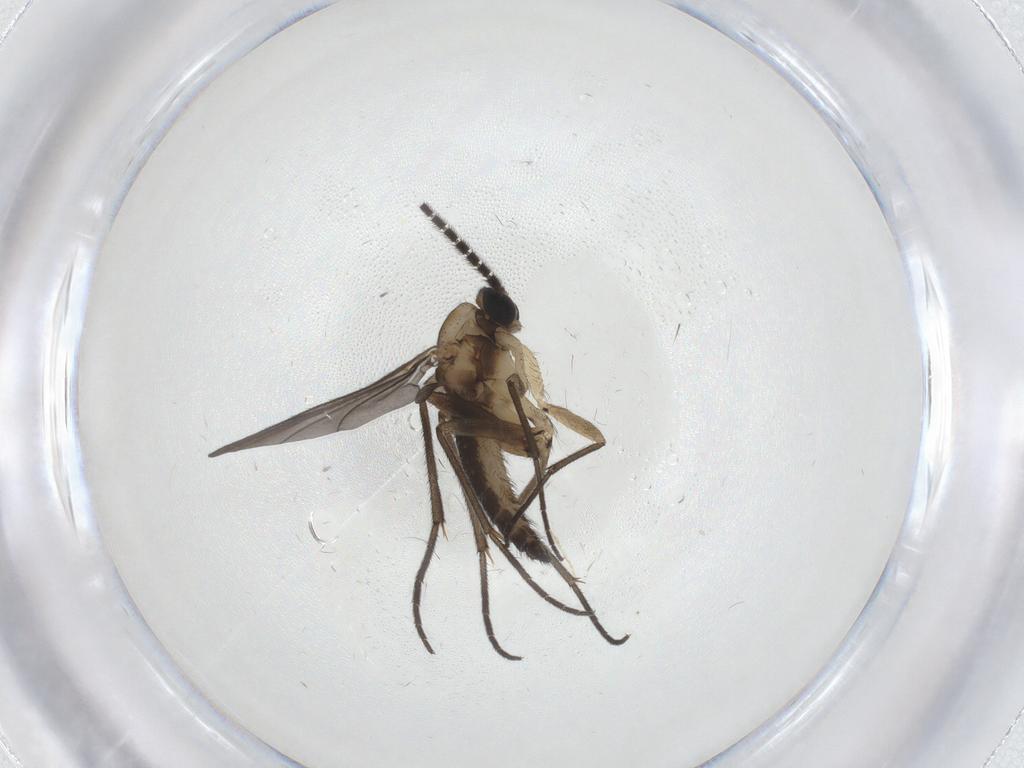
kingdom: Animalia
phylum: Arthropoda
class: Insecta
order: Diptera
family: Sciaridae
